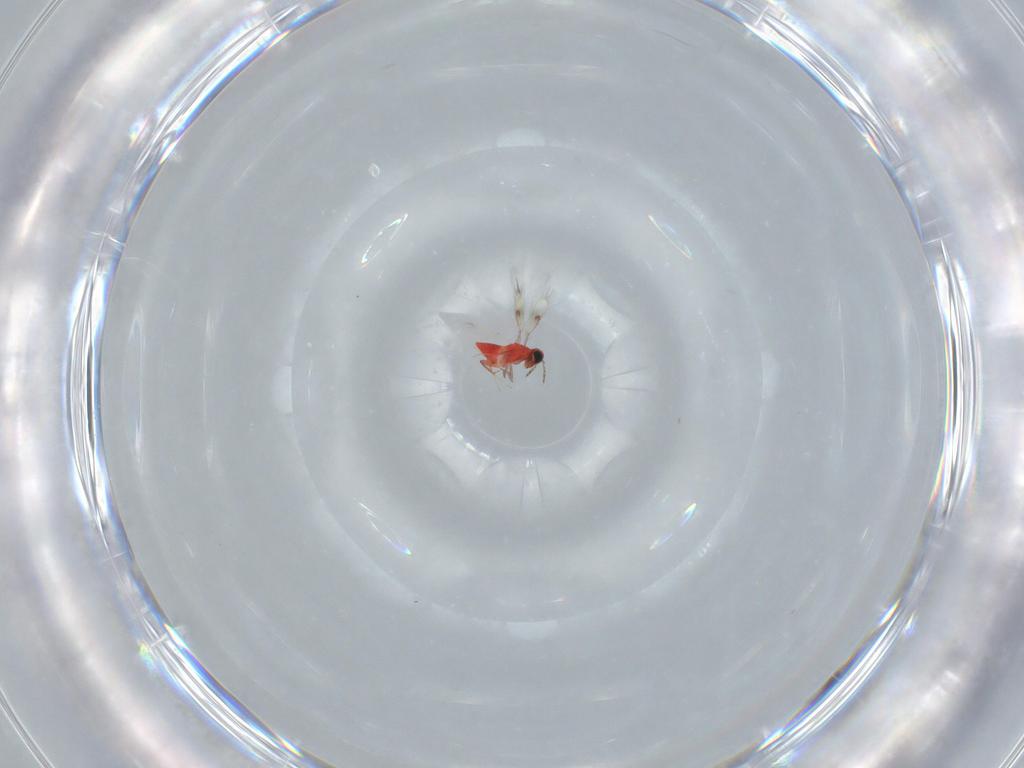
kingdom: Animalia
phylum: Arthropoda
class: Insecta
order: Hymenoptera
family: Trichogrammatidae
